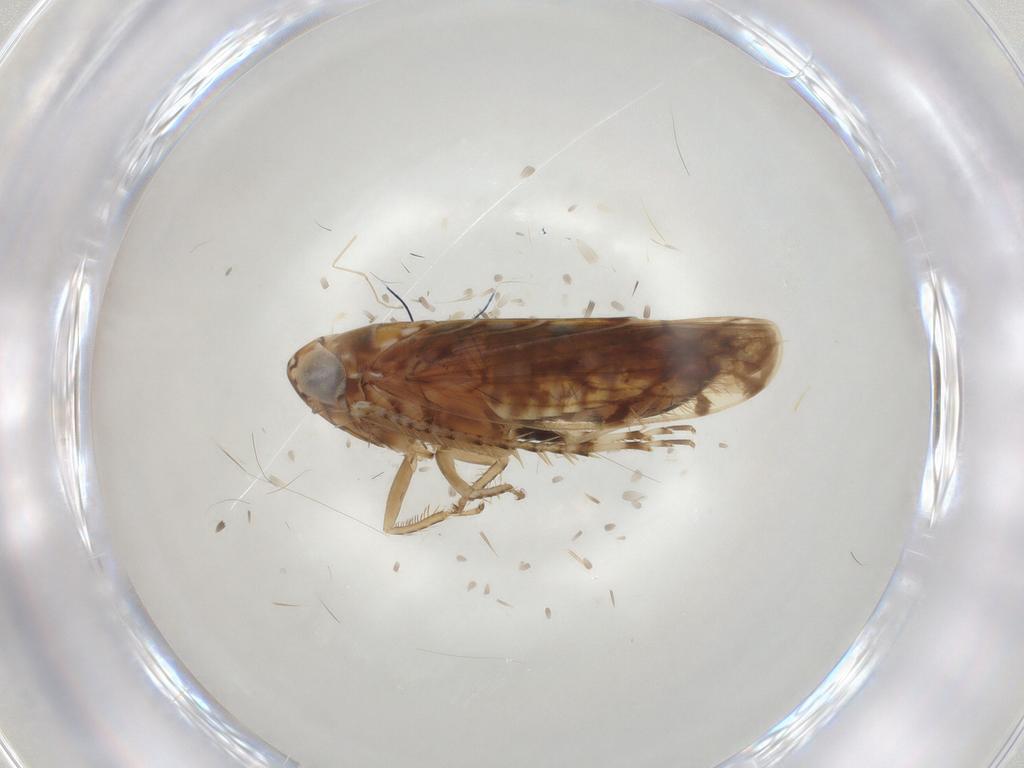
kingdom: Animalia
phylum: Arthropoda
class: Insecta
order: Hemiptera
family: Cicadellidae
